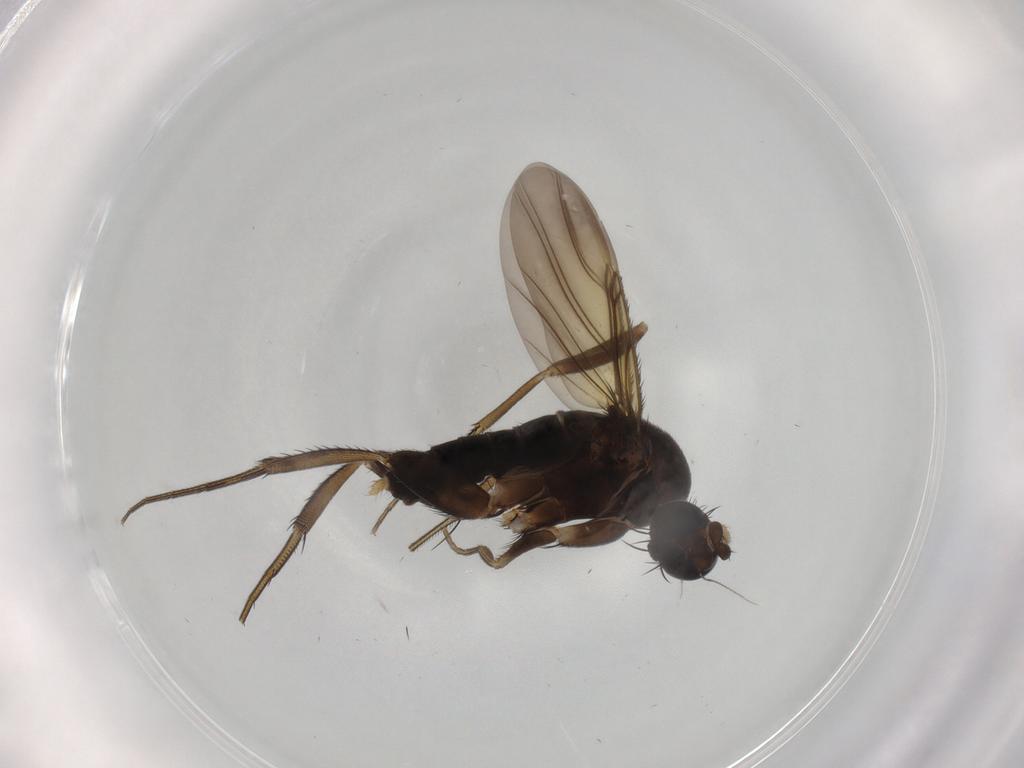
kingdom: Animalia
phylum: Arthropoda
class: Insecta
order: Diptera
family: Phoridae
